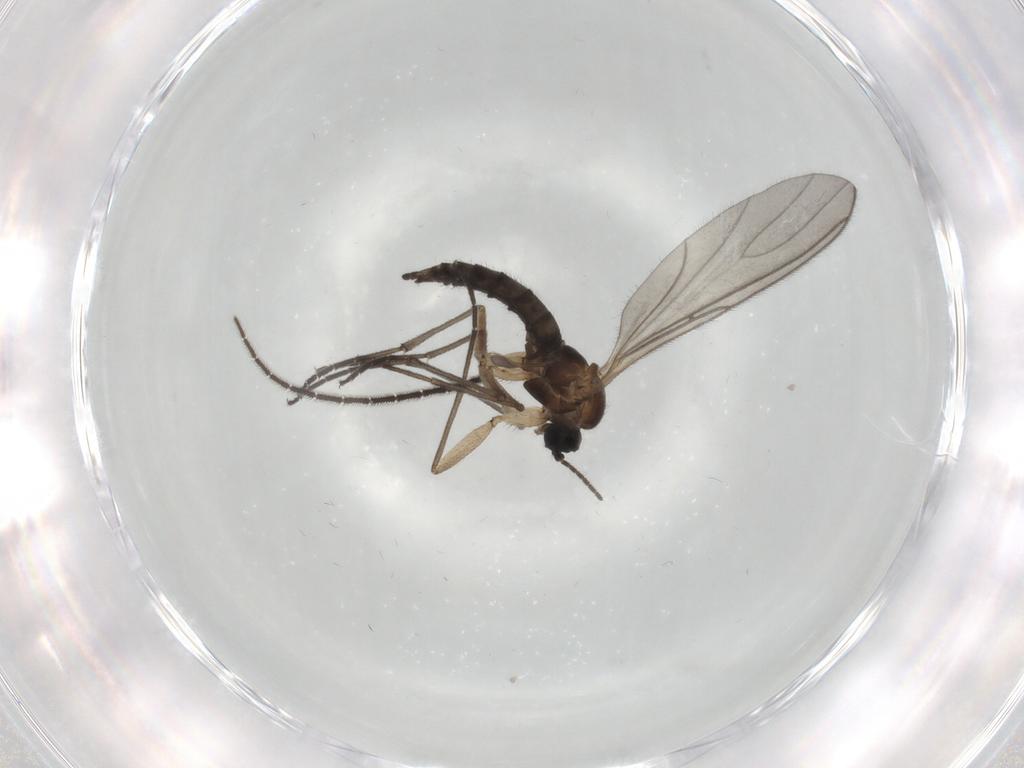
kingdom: Animalia
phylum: Arthropoda
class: Insecta
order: Diptera
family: Sciaridae
